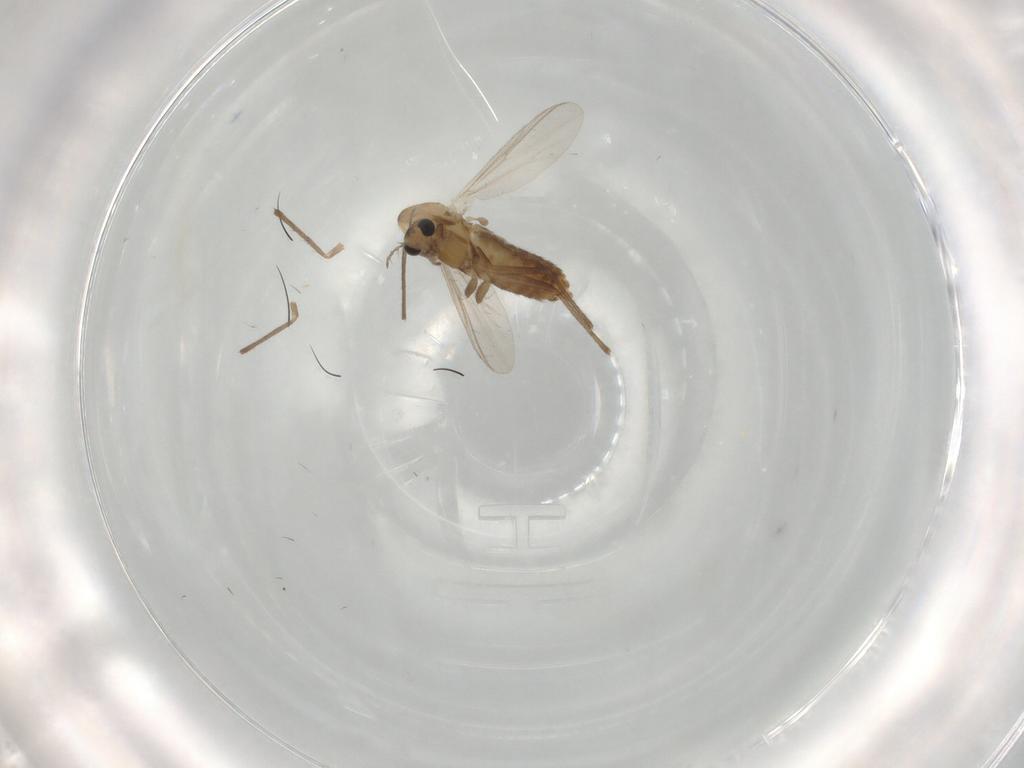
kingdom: Animalia
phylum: Arthropoda
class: Insecta
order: Diptera
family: Chironomidae
